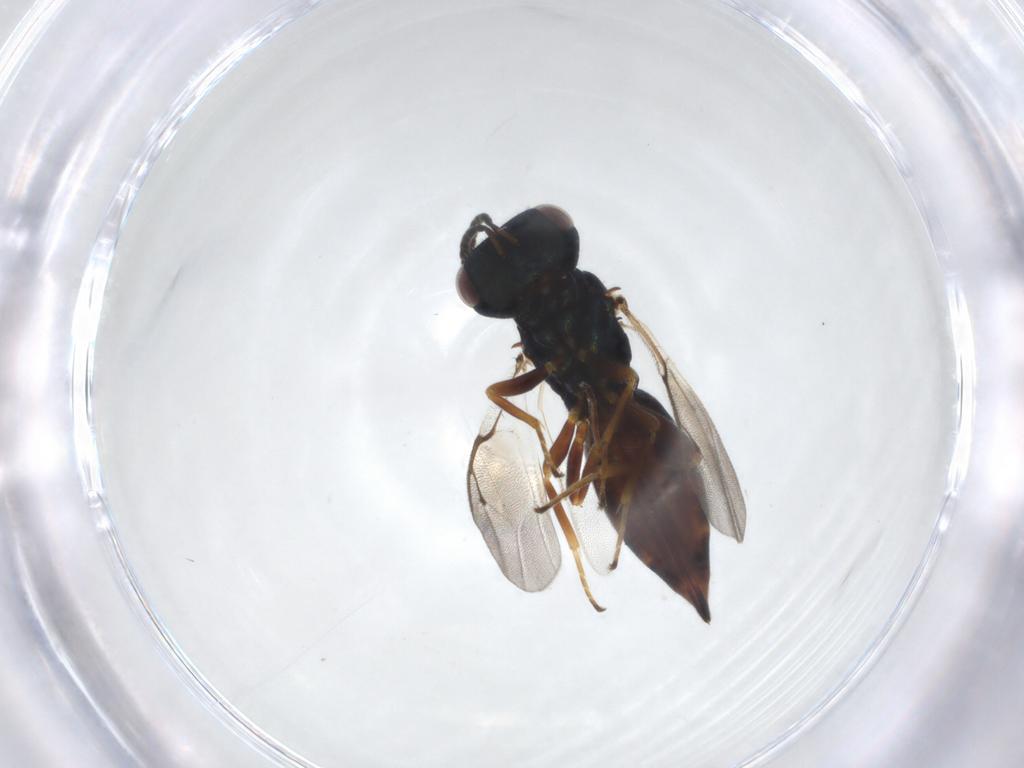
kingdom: Animalia
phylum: Arthropoda
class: Insecta
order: Hymenoptera
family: Pteromalidae
